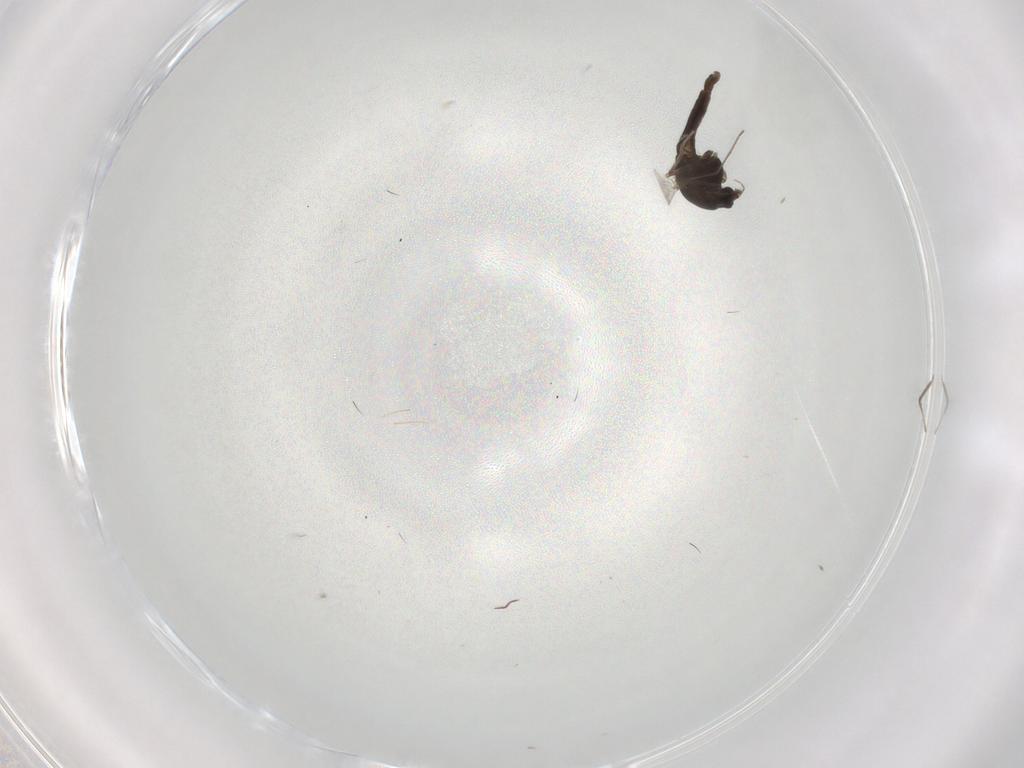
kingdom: Animalia
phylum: Arthropoda
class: Insecta
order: Diptera
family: Chironomidae
